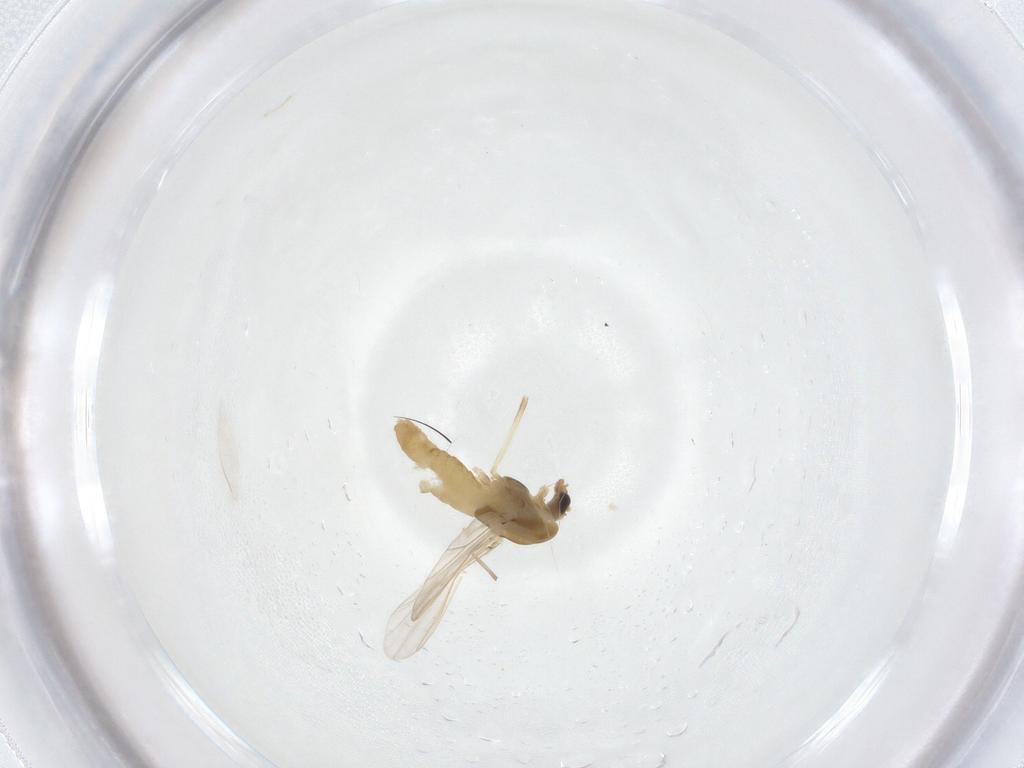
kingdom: Animalia
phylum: Arthropoda
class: Insecta
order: Diptera
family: Chironomidae
